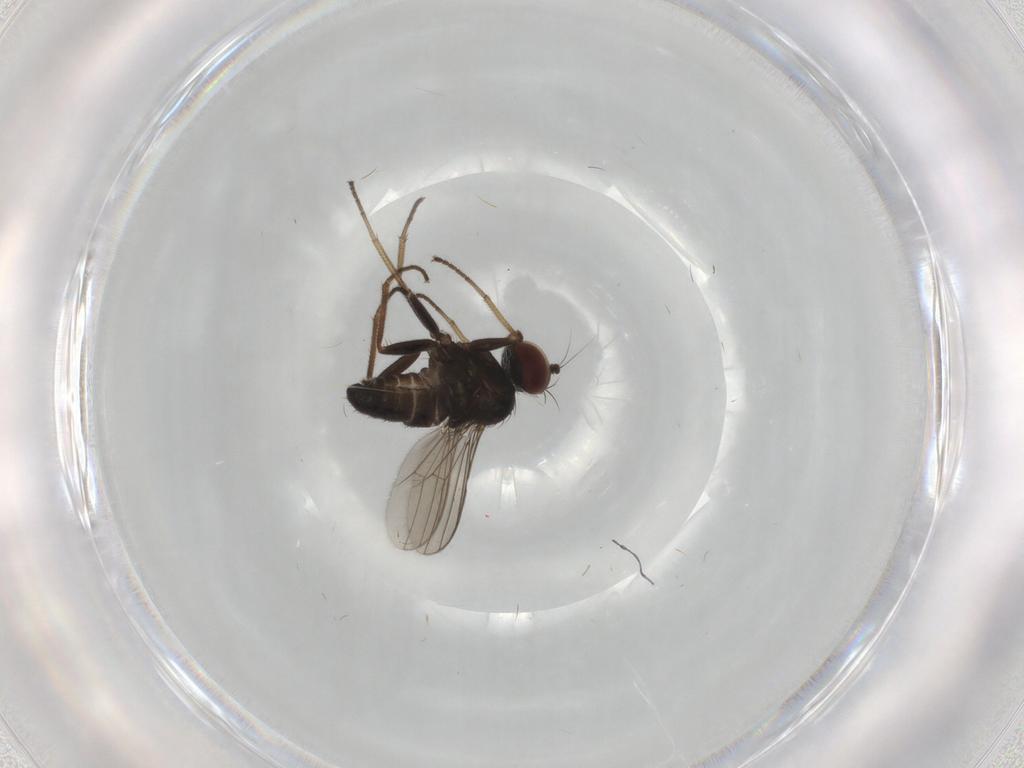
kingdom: Animalia
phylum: Arthropoda
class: Insecta
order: Diptera
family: Dolichopodidae
